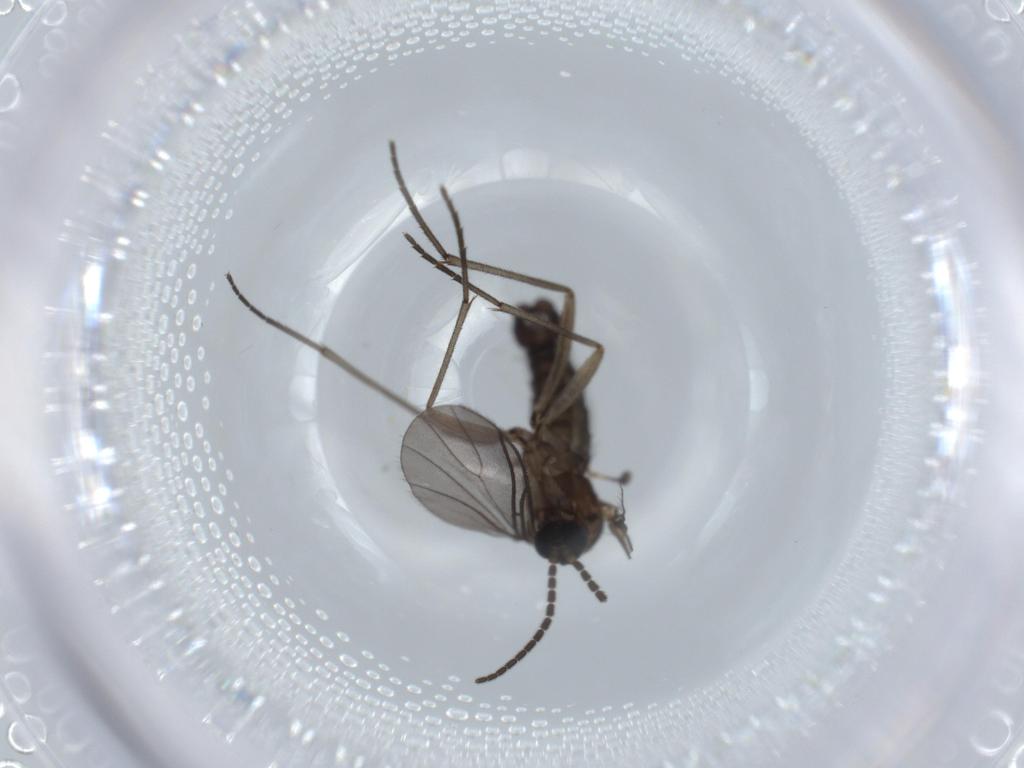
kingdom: Animalia
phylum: Arthropoda
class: Insecta
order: Diptera
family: Sciaridae
